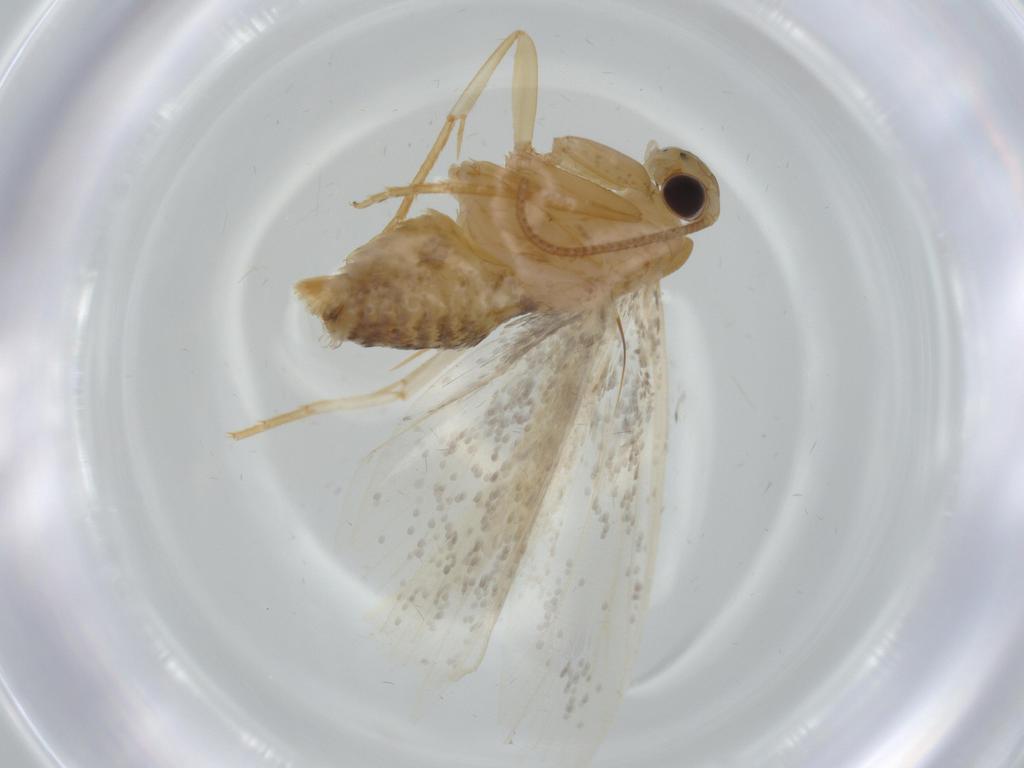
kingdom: Animalia
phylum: Arthropoda
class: Insecta
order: Trichoptera
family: Leptoceridae
